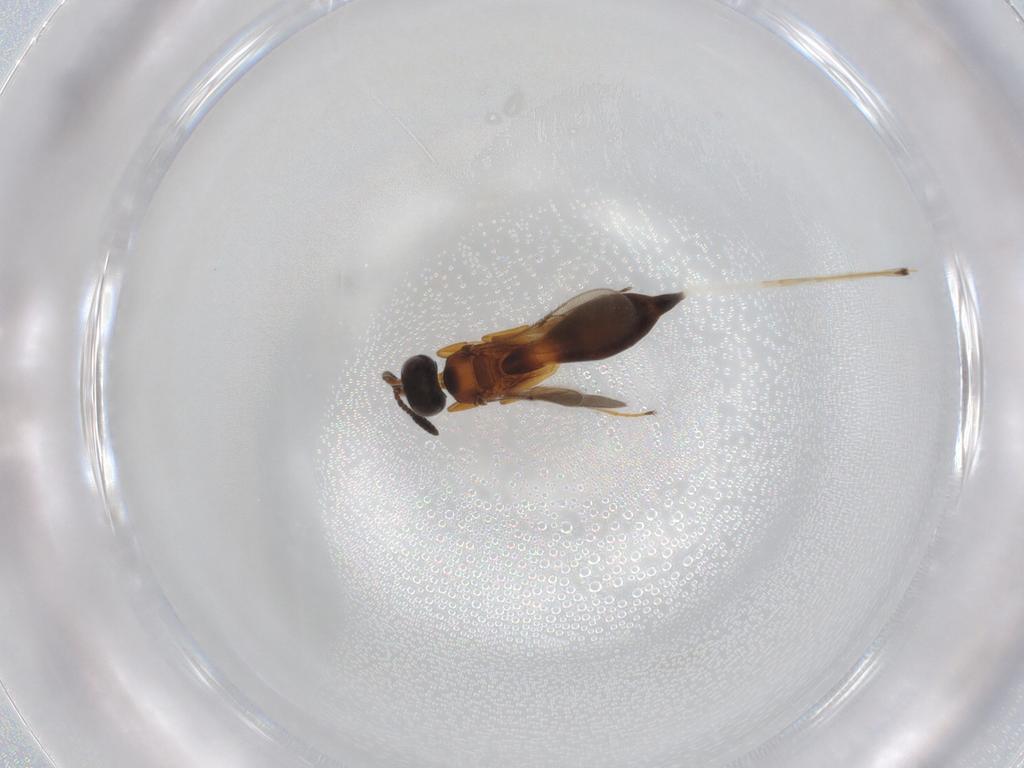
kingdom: Animalia
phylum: Arthropoda
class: Insecta
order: Hymenoptera
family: Scelionidae
